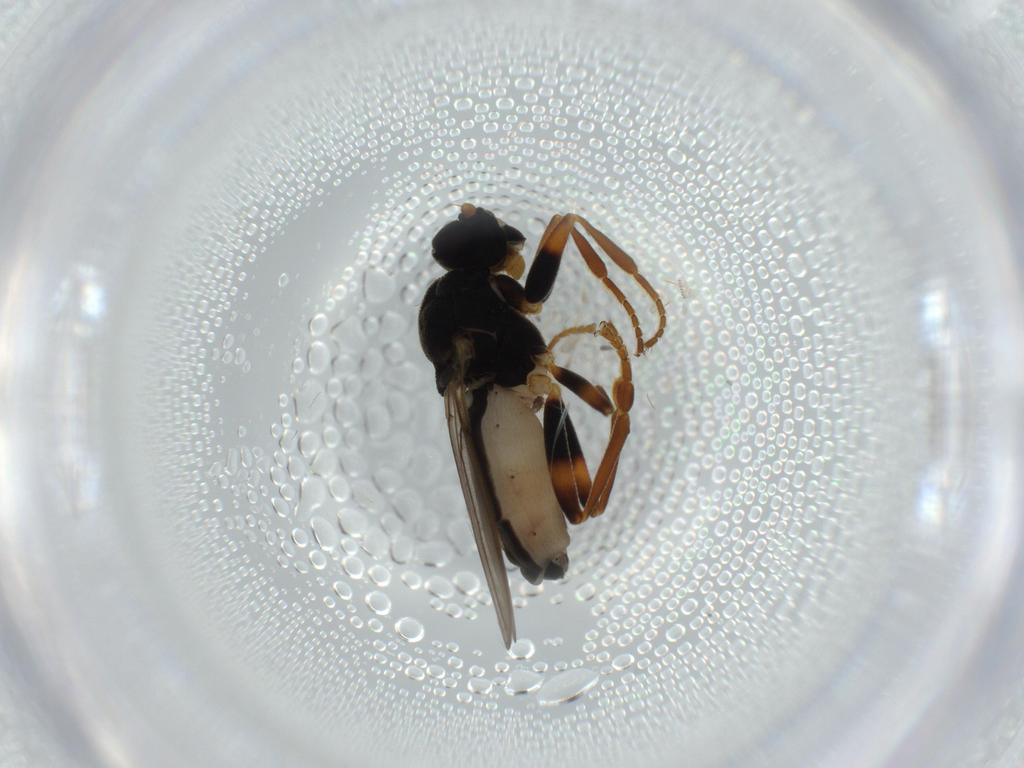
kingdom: Animalia
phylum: Arthropoda
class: Insecta
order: Diptera
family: Sphaeroceridae
